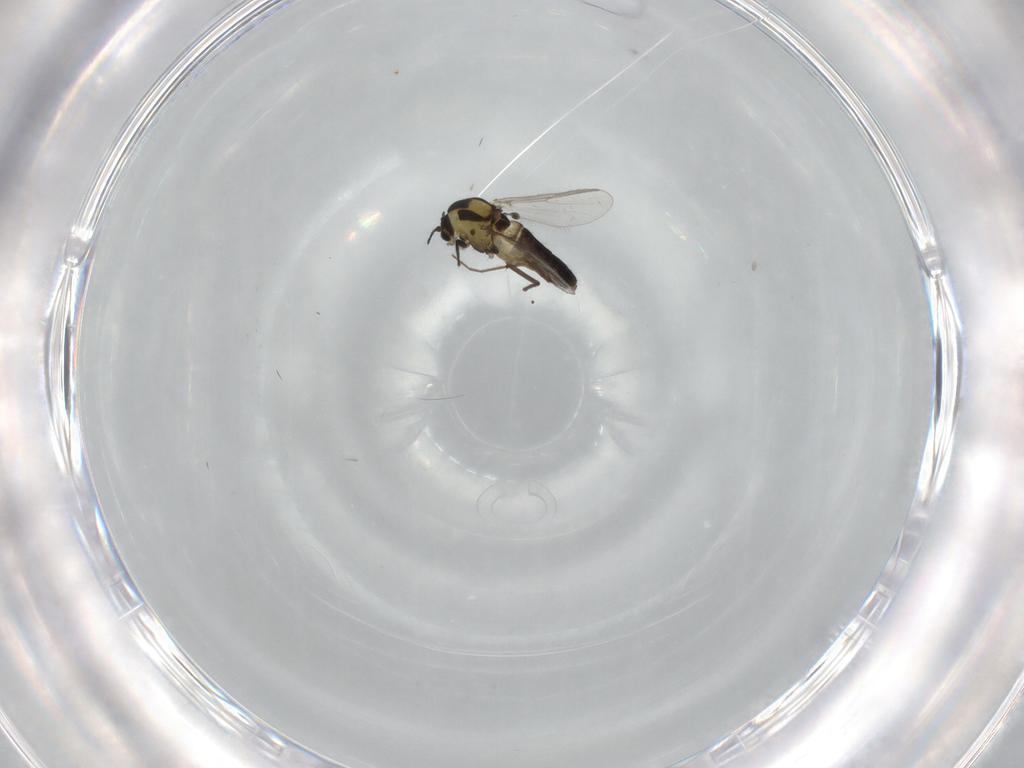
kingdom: Animalia
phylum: Arthropoda
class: Insecta
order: Diptera
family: Chironomidae
